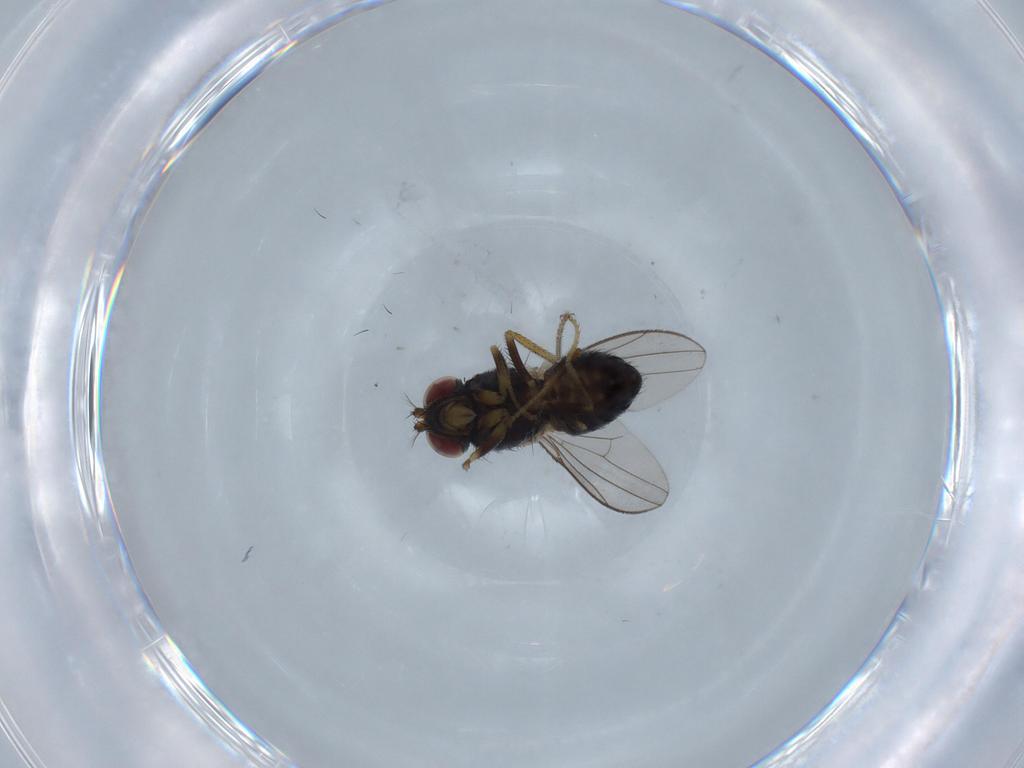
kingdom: Animalia
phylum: Arthropoda
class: Insecta
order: Diptera
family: Ephydridae
